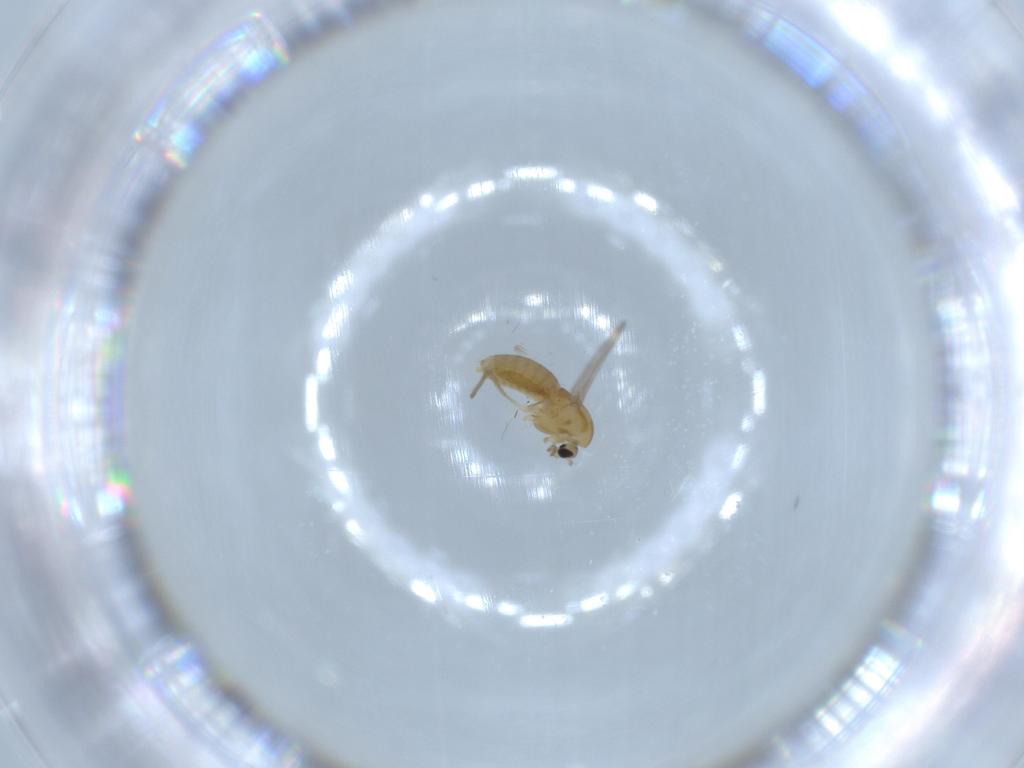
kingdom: Animalia
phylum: Arthropoda
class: Insecta
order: Diptera
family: Chironomidae
